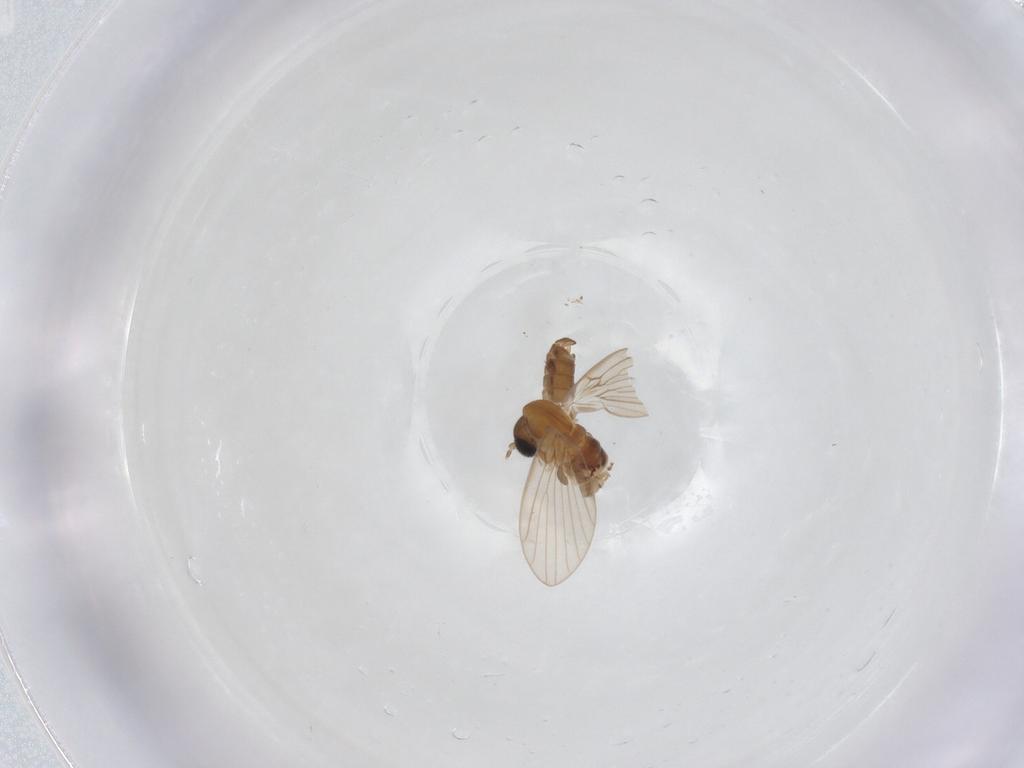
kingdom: Animalia
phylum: Arthropoda
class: Insecta
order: Diptera
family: Chironomidae
